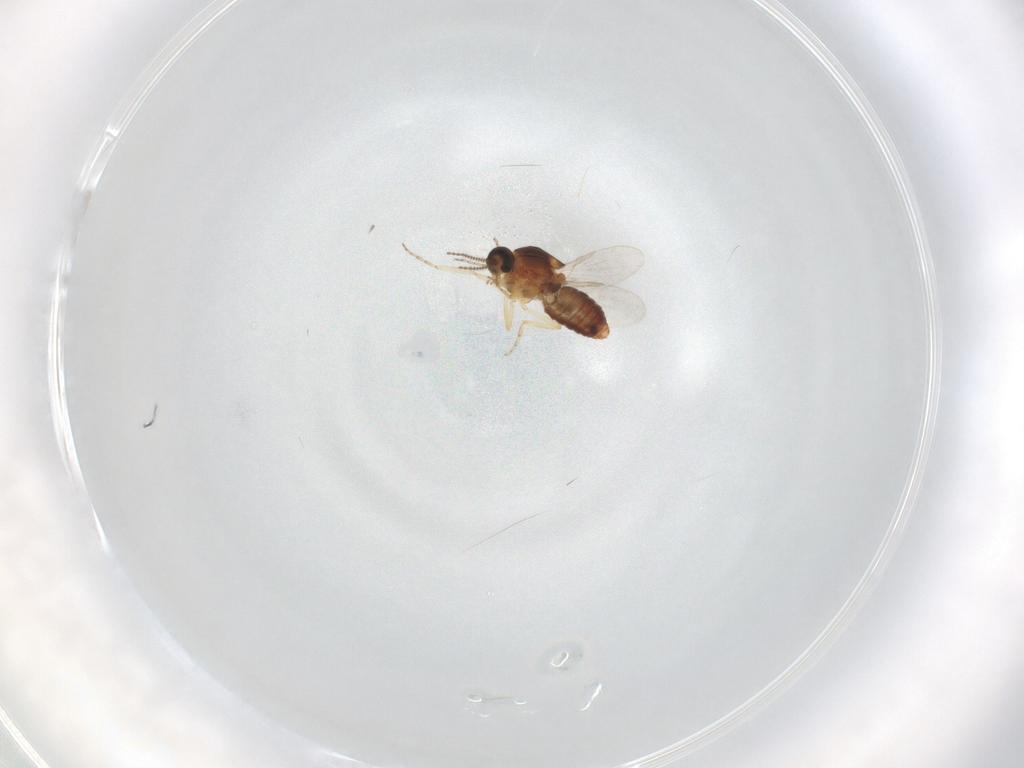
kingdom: Animalia
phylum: Arthropoda
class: Insecta
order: Diptera
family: Ceratopogonidae
